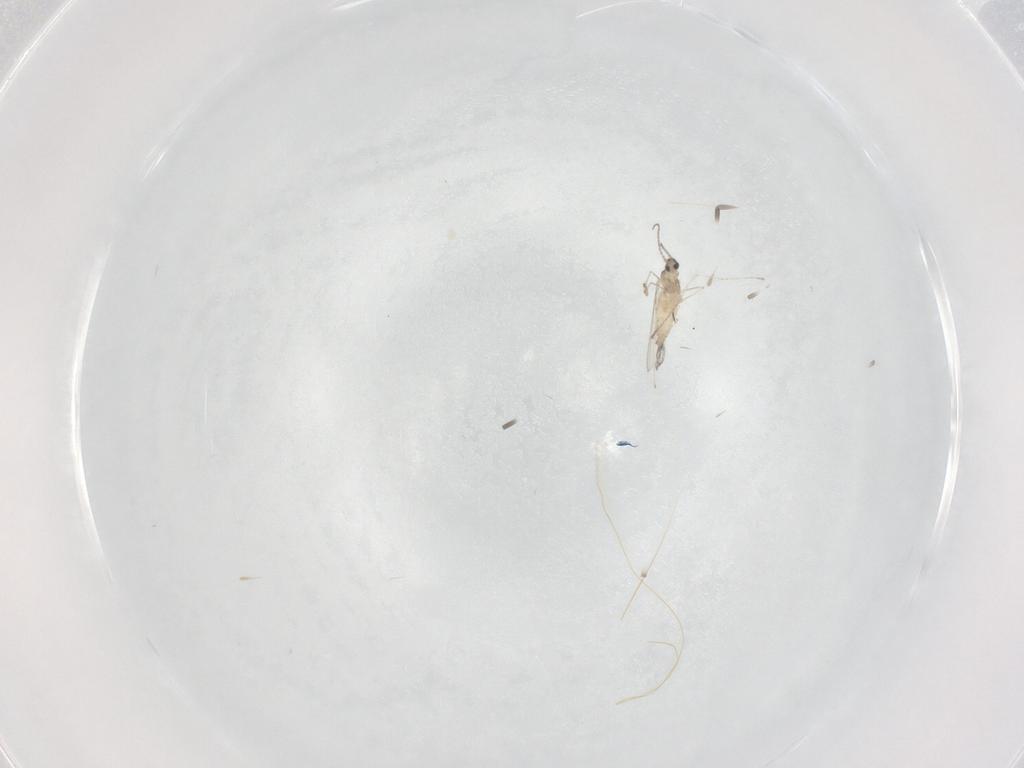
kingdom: Animalia
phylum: Arthropoda
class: Insecta
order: Diptera
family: Cecidomyiidae
